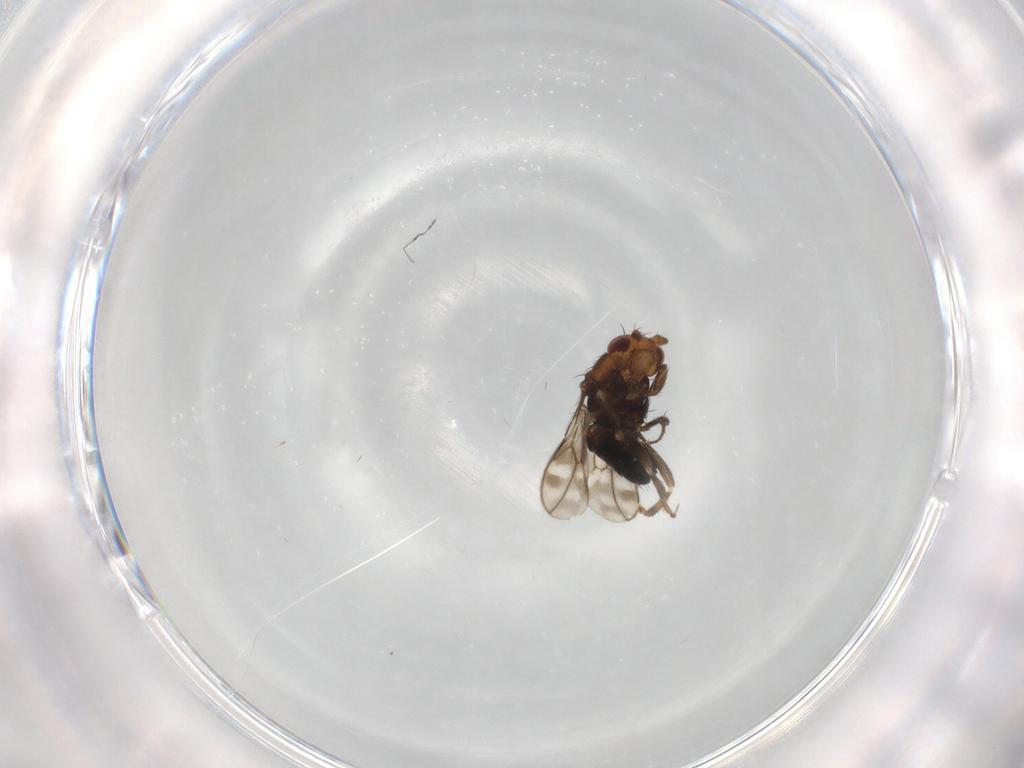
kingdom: Animalia
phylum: Arthropoda
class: Insecta
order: Diptera
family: Sphaeroceridae
